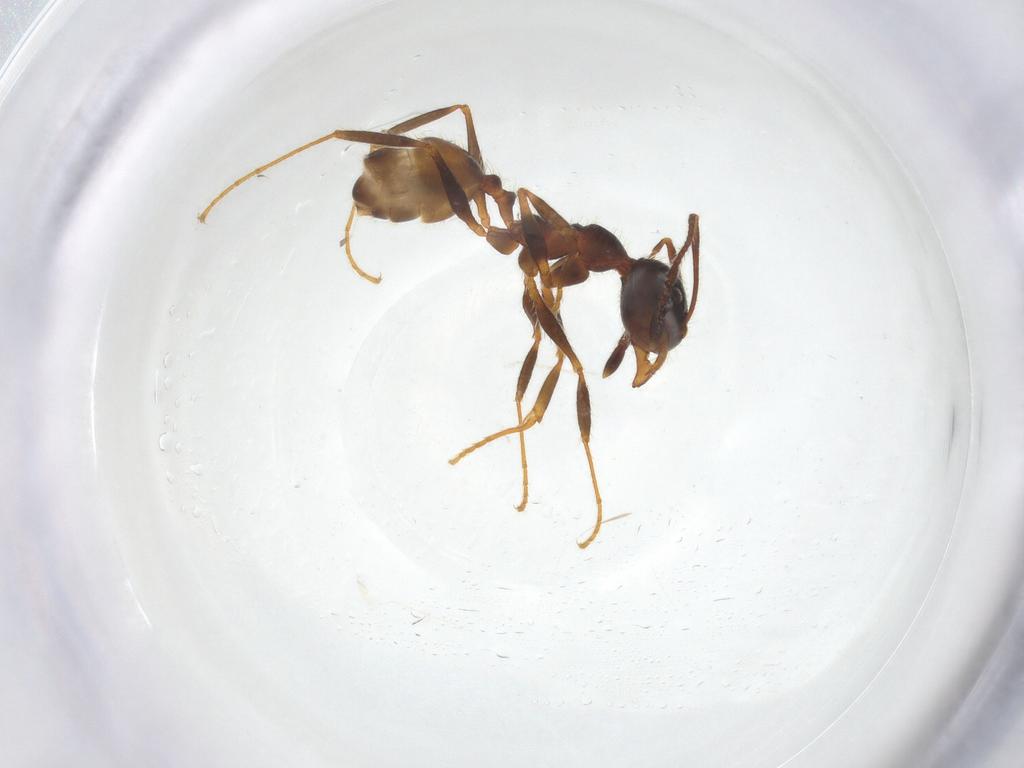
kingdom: Animalia
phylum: Arthropoda
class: Insecta
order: Hymenoptera
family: Formicidae
